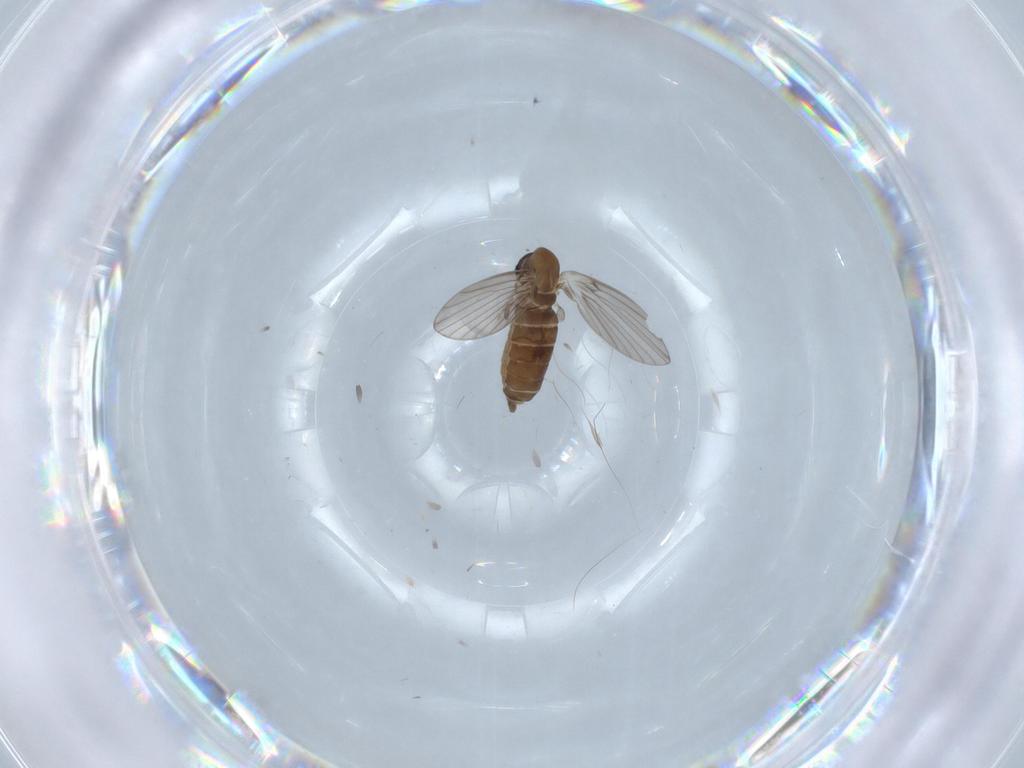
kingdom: Animalia
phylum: Arthropoda
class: Insecta
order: Diptera
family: Psychodidae
